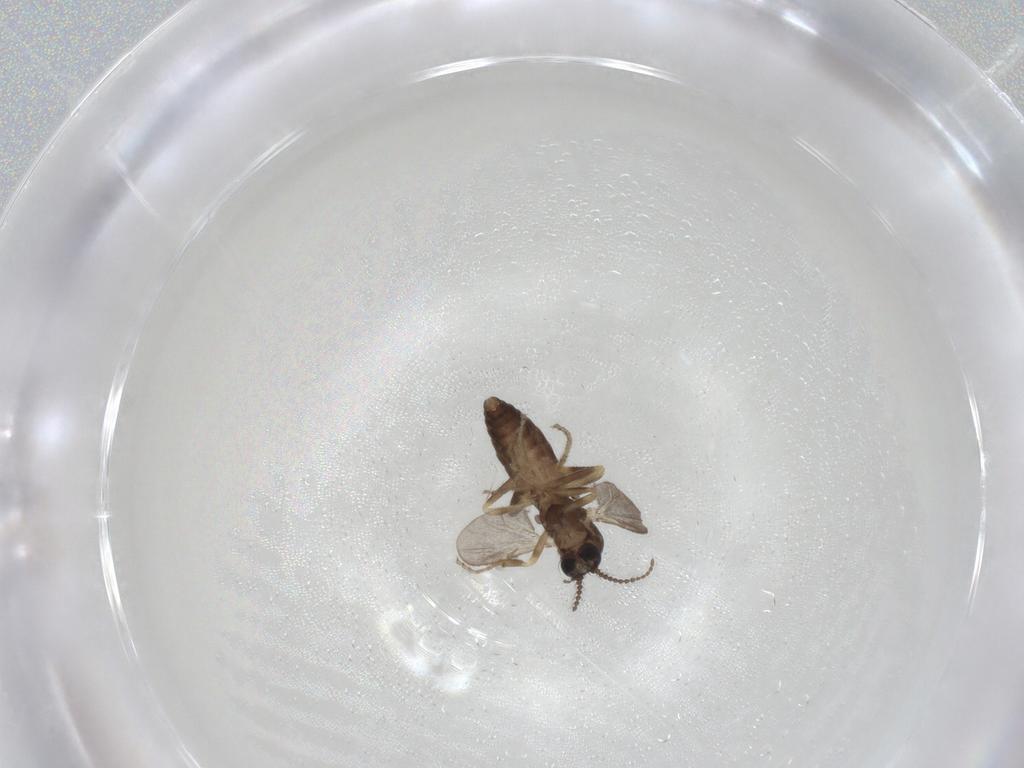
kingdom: Animalia
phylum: Arthropoda
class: Insecta
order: Diptera
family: Ceratopogonidae
